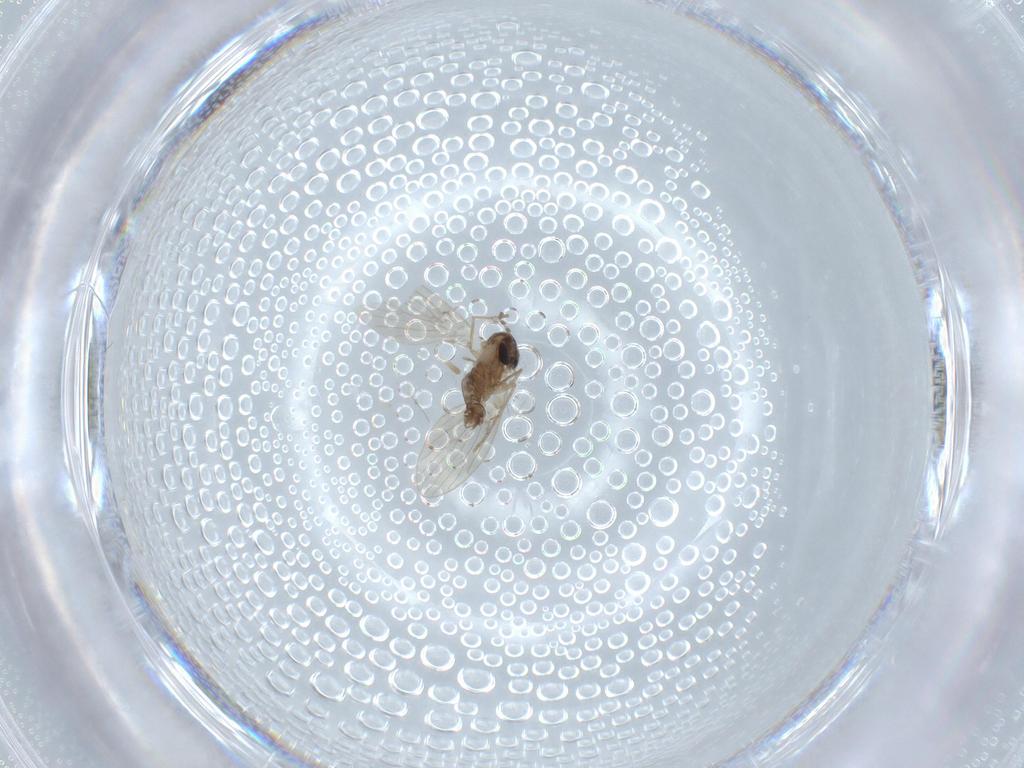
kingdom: Animalia
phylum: Arthropoda
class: Insecta
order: Diptera
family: Psychodidae
